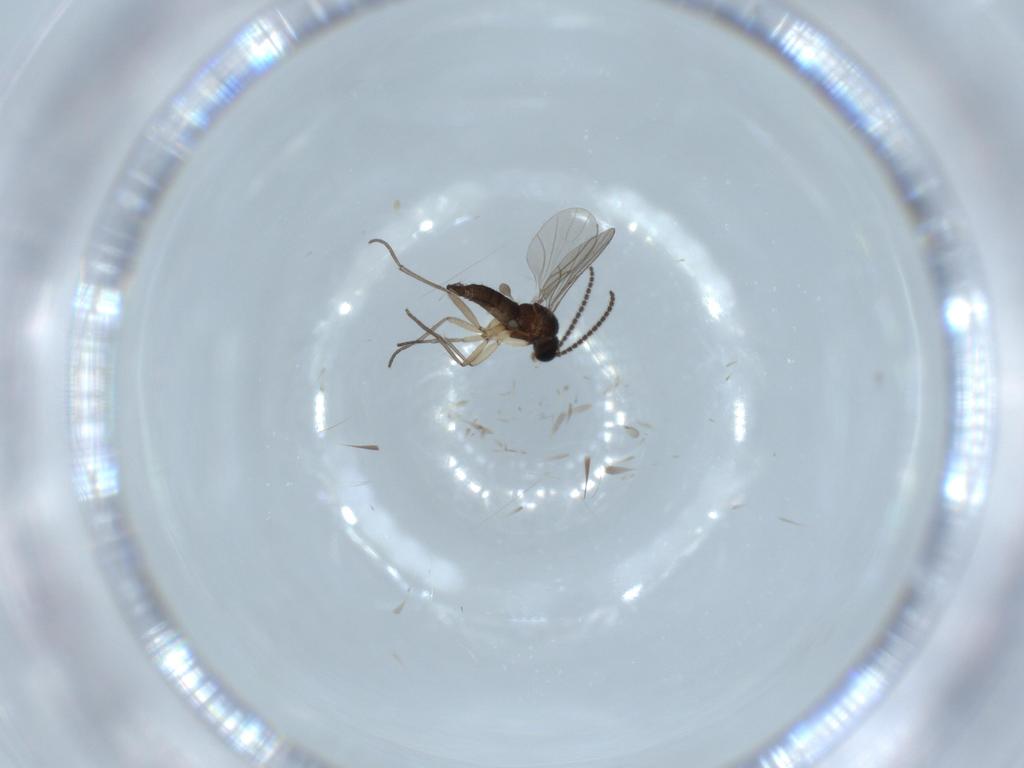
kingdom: Animalia
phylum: Arthropoda
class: Insecta
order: Diptera
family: Sciaridae
